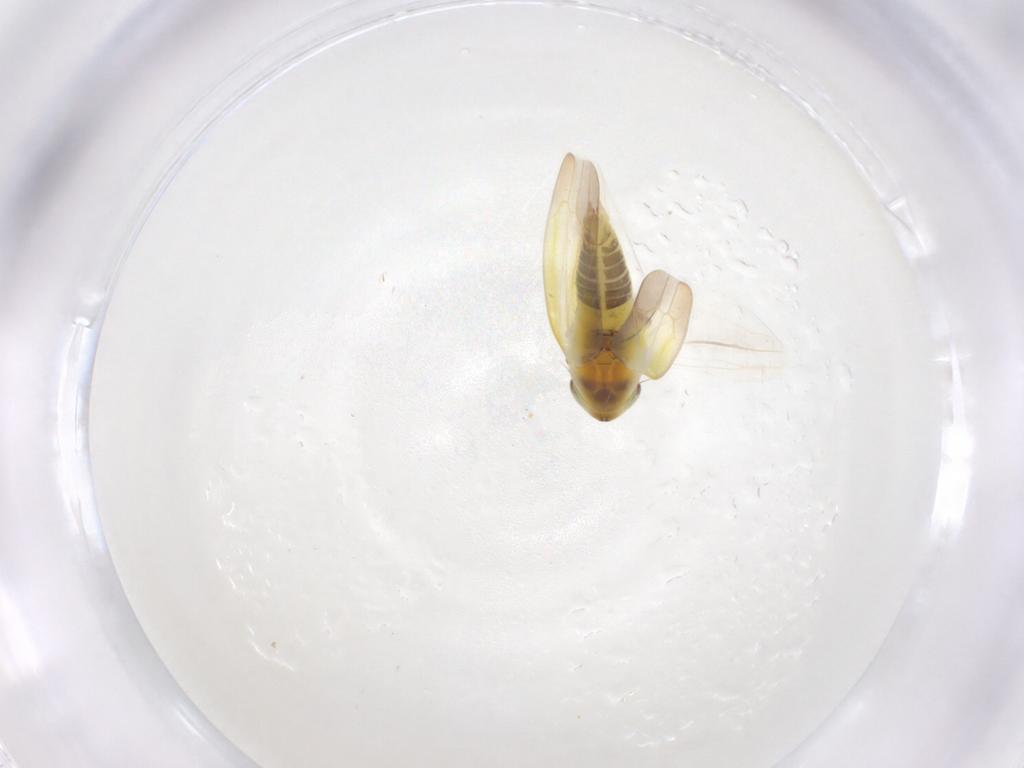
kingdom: Animalia
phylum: Arthropoda
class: Insecta
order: Hemiptera
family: Cicadellidae
